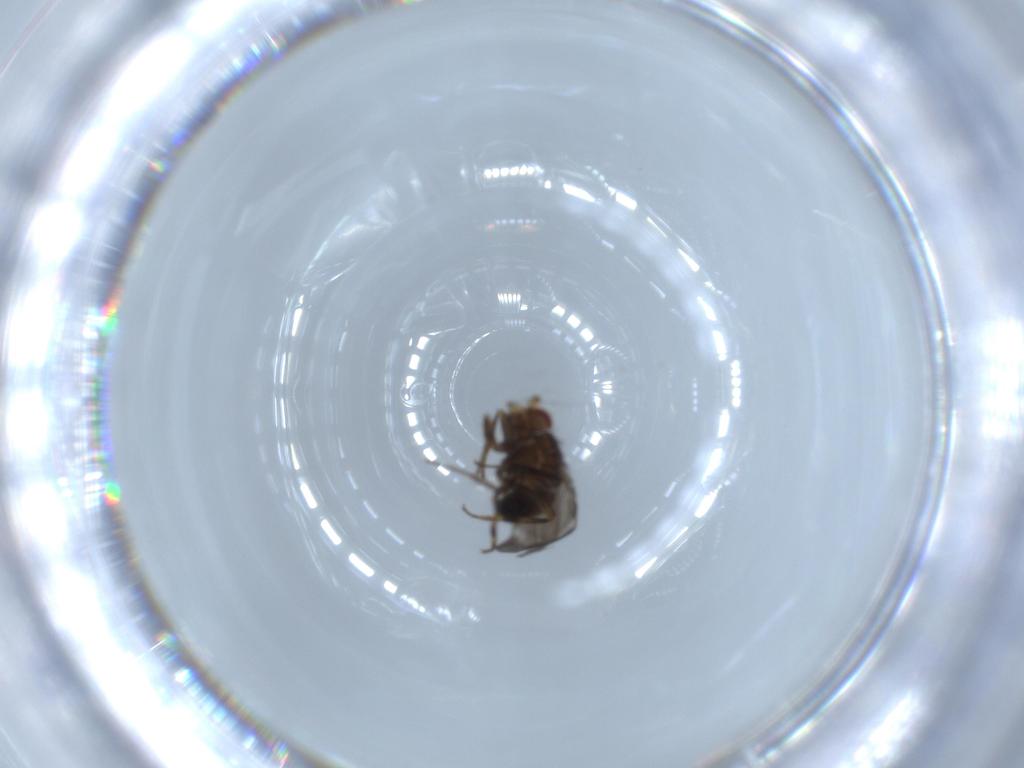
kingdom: Animalia
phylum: Arthropoda
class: Insecta
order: Diptera
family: Sphaeroceridae
